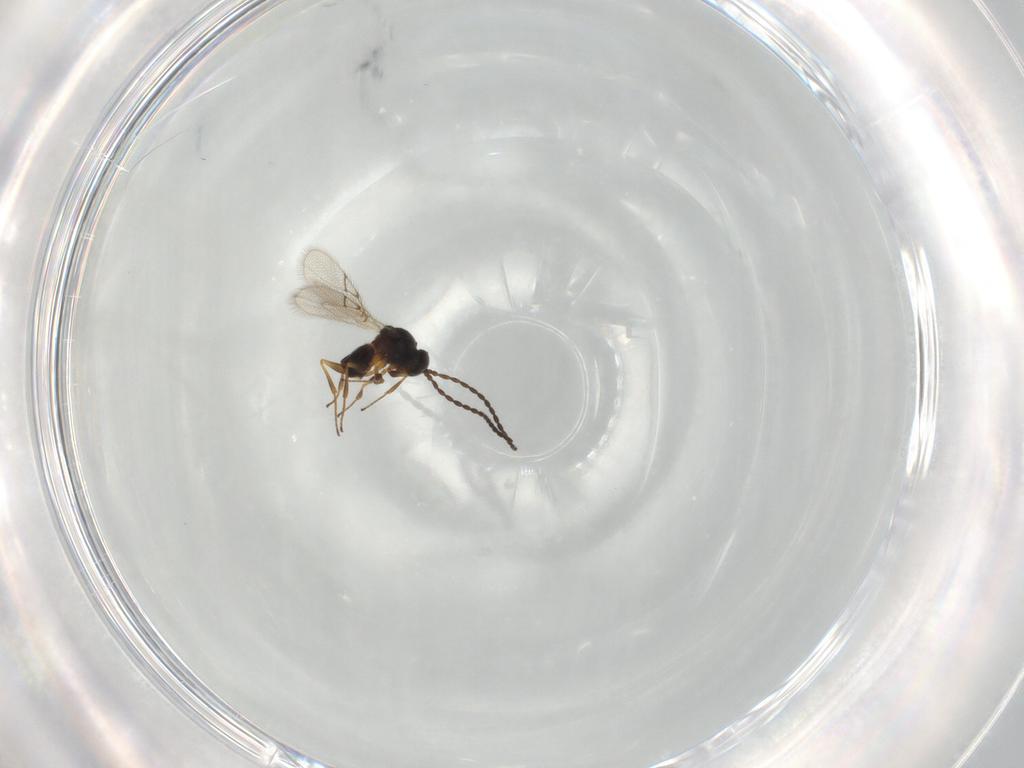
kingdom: Animalia
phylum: Arthropoda
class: Insecta
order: Hymenoptera
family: Figitidae
